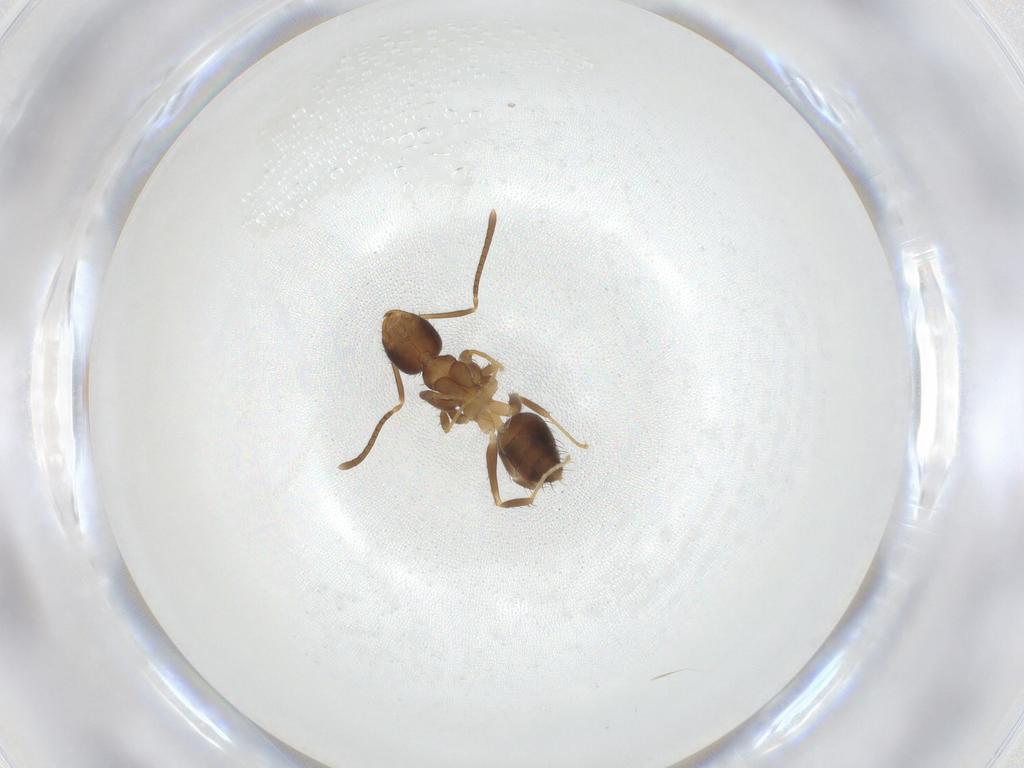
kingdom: Animalia
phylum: Arthropoda
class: Insecta
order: Hymenoptera
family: Formicidae
